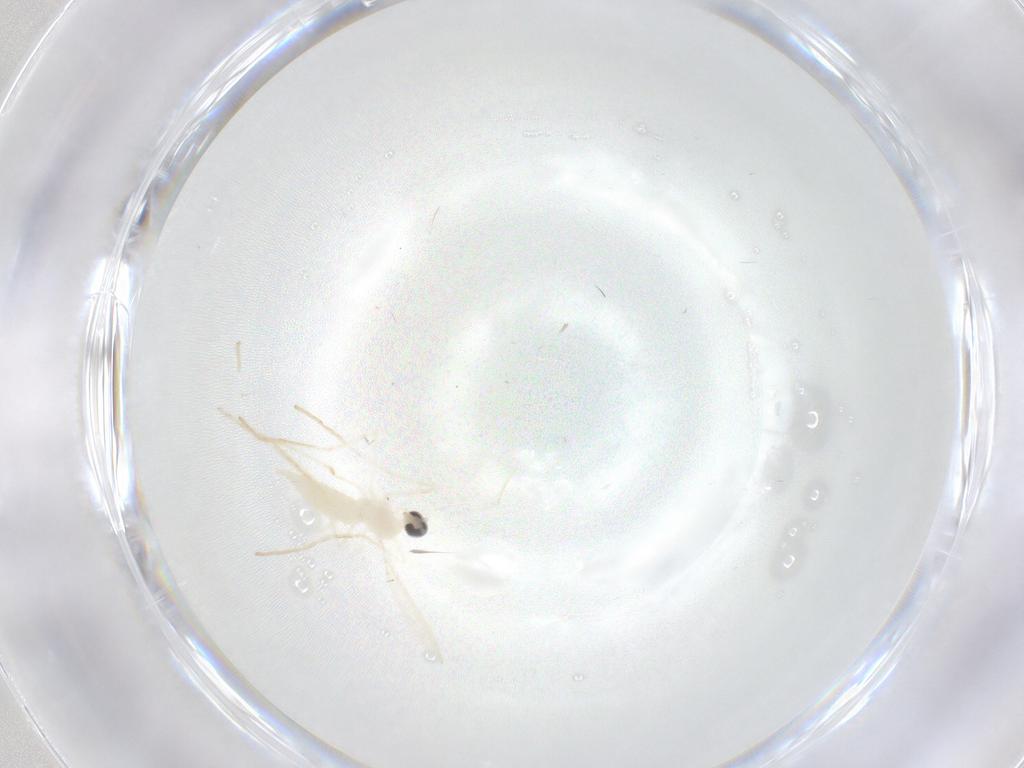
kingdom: Animalia
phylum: Arthropoda
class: Insecta
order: Diptera
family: Cecidomyiidae
